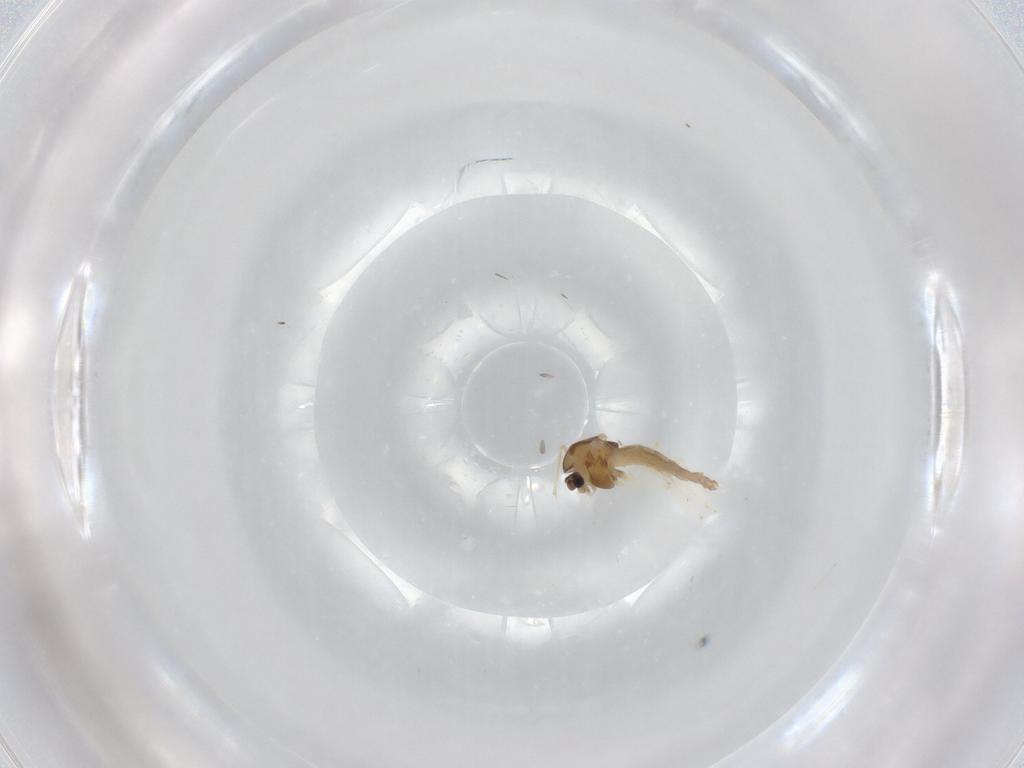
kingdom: Animalia
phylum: Arthropoda
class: Insecta
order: Diptera
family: Chironomidae
